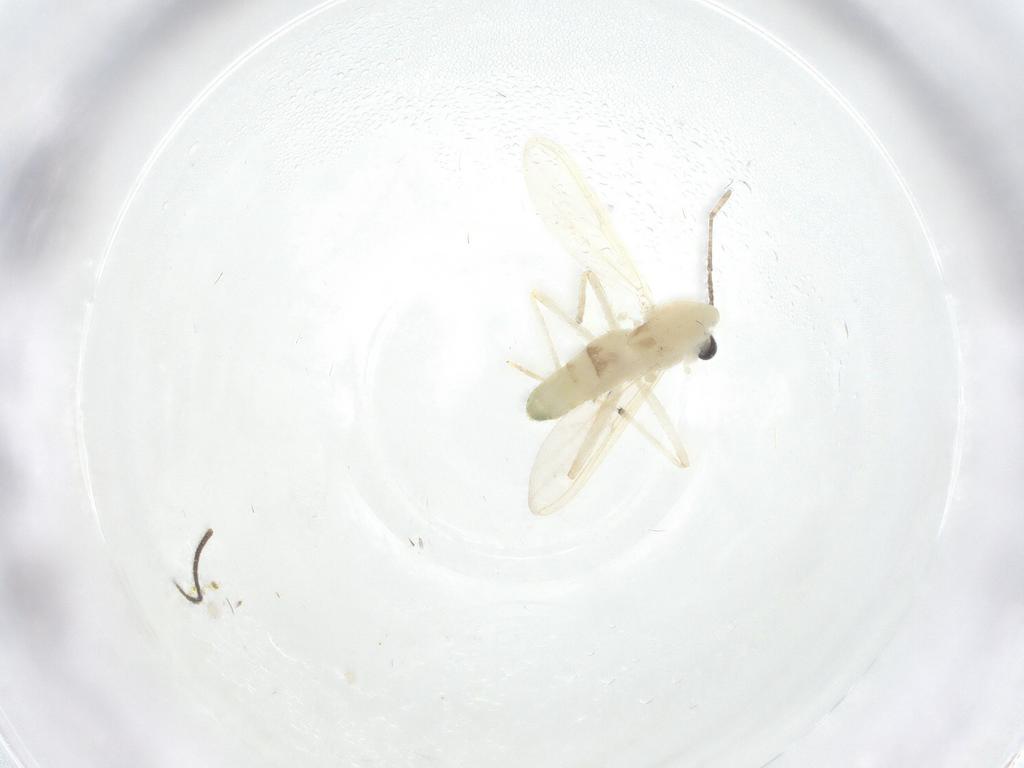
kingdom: Animalia
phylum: Arthropoda
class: Insecta
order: Diptera
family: Chironomidae
